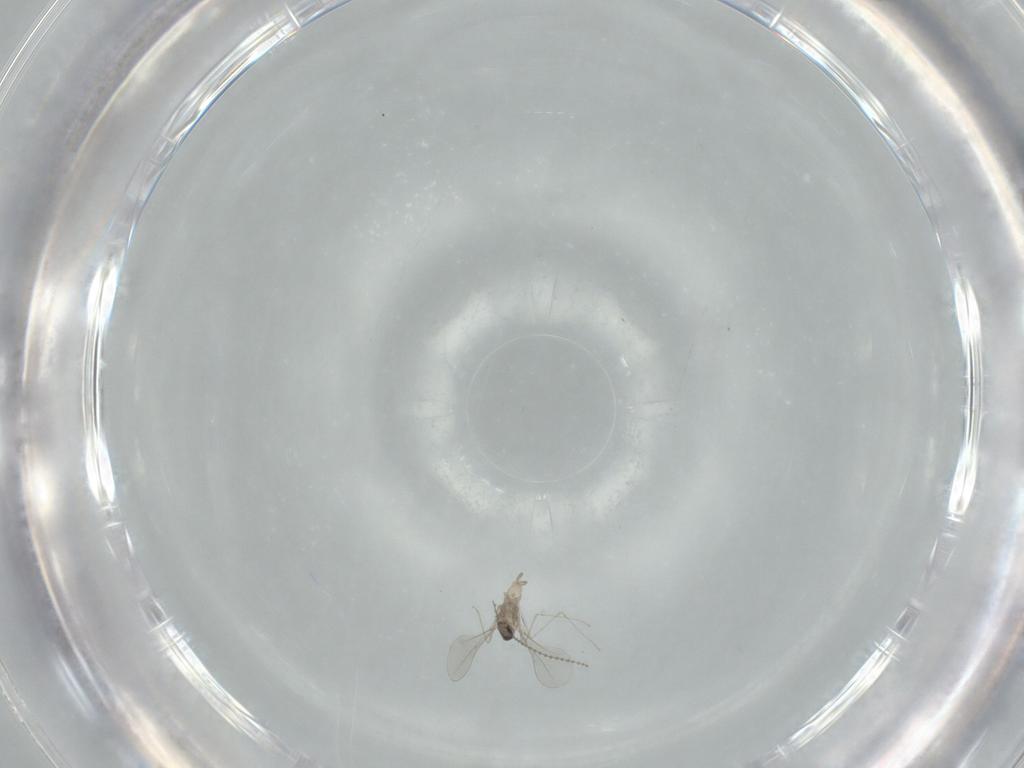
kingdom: Animalia
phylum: Arthropoda
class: Insecta
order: Diptera
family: Cecidomyiidae
